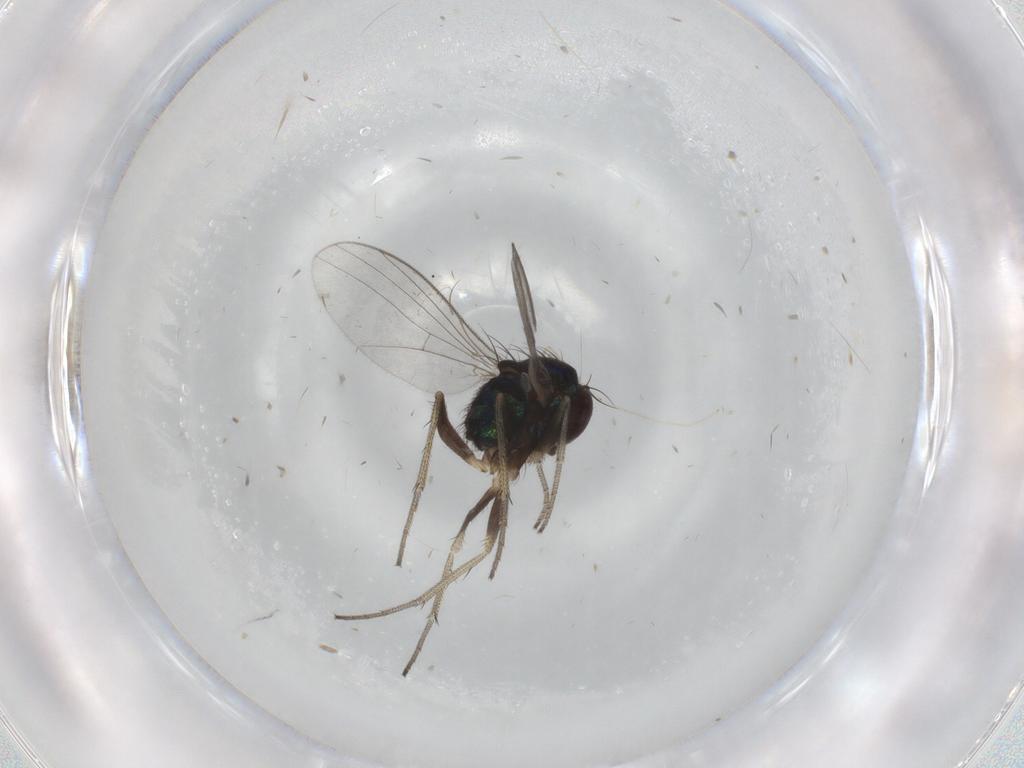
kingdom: Animalia
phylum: Arthropoda
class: Insecta
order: Diptera
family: Dolichopodidae
